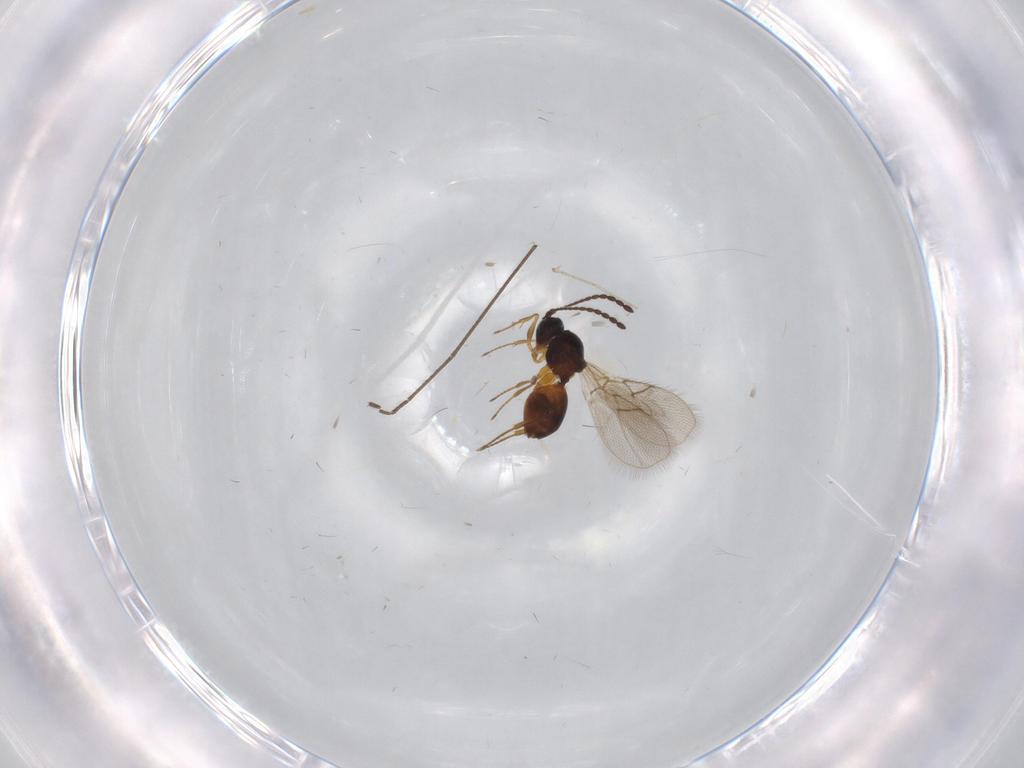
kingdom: Animalia
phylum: Arthropoda
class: Insecta
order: Hymenoptera
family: Figitidae
